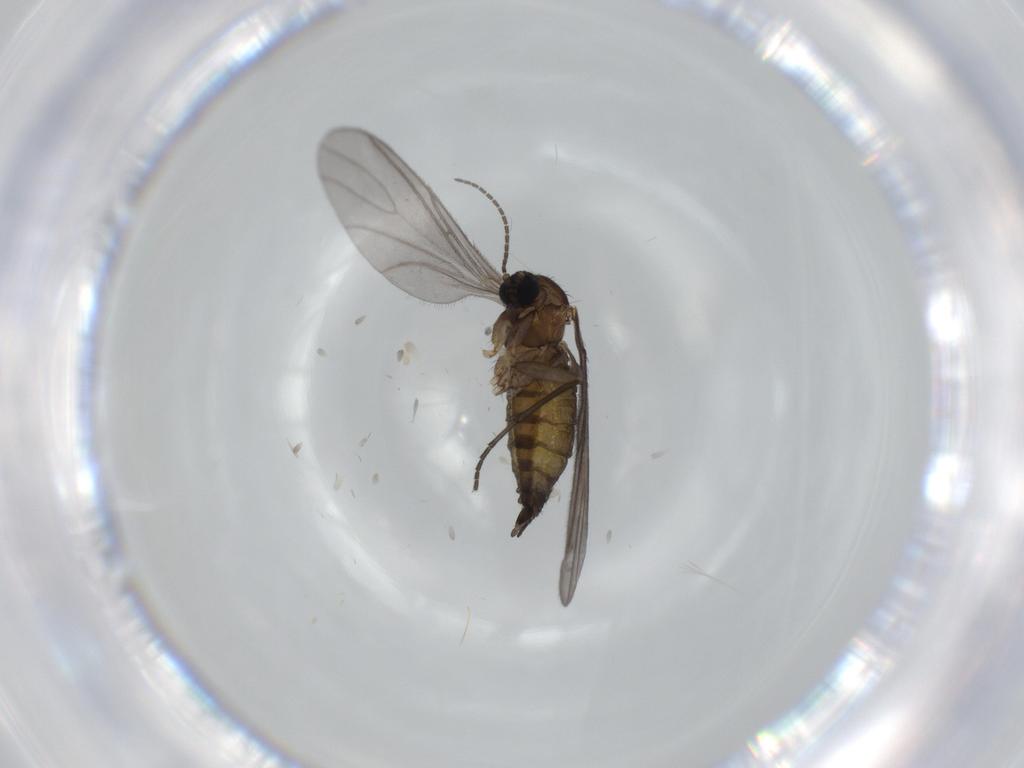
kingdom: Animalia
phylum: Arthropoda
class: Insecta
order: Diptera
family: Sciaridae
